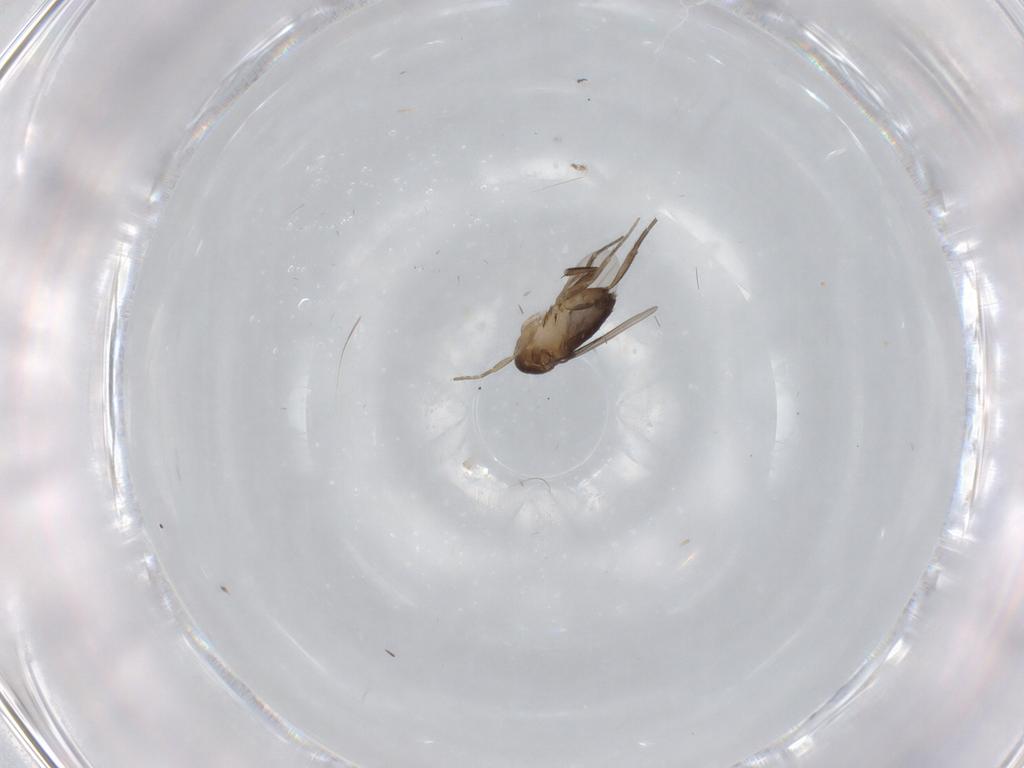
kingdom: Animalia
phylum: Arthropoda
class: Insecta
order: Diptera
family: Phoridae
